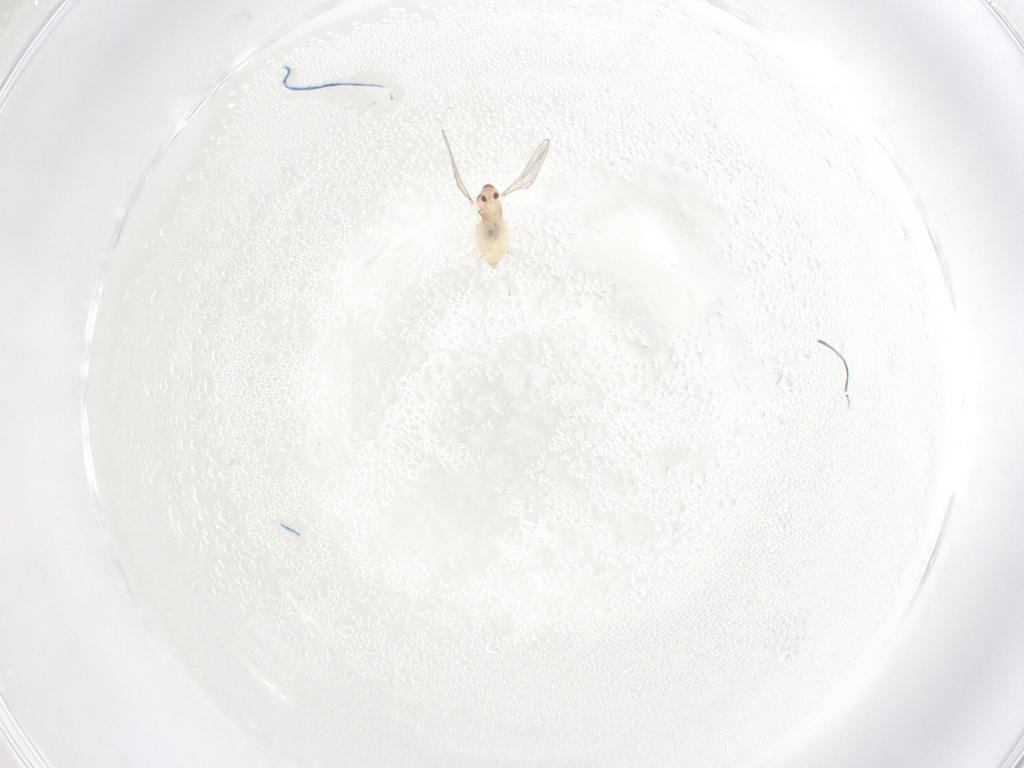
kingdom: Animalia
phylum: Arthropoda
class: Insecta
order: Diptera
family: Cecidomyiidae
